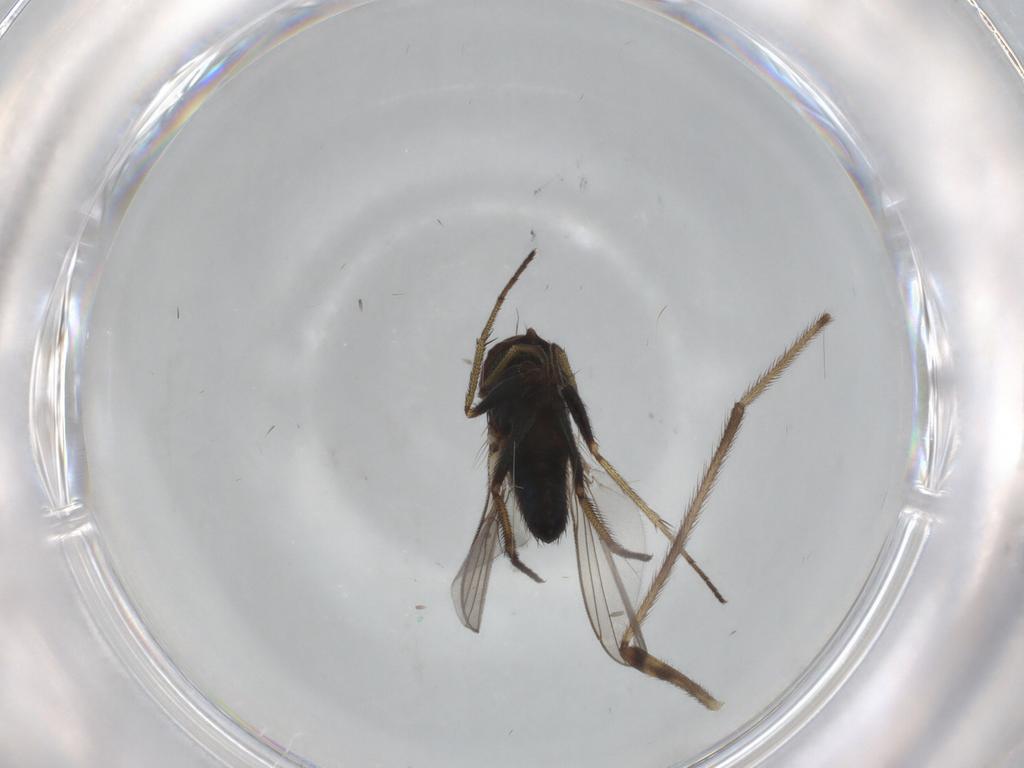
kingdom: Animalia
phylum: Arthropoda
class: Insecta
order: Diptera
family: Dolichopodidae
